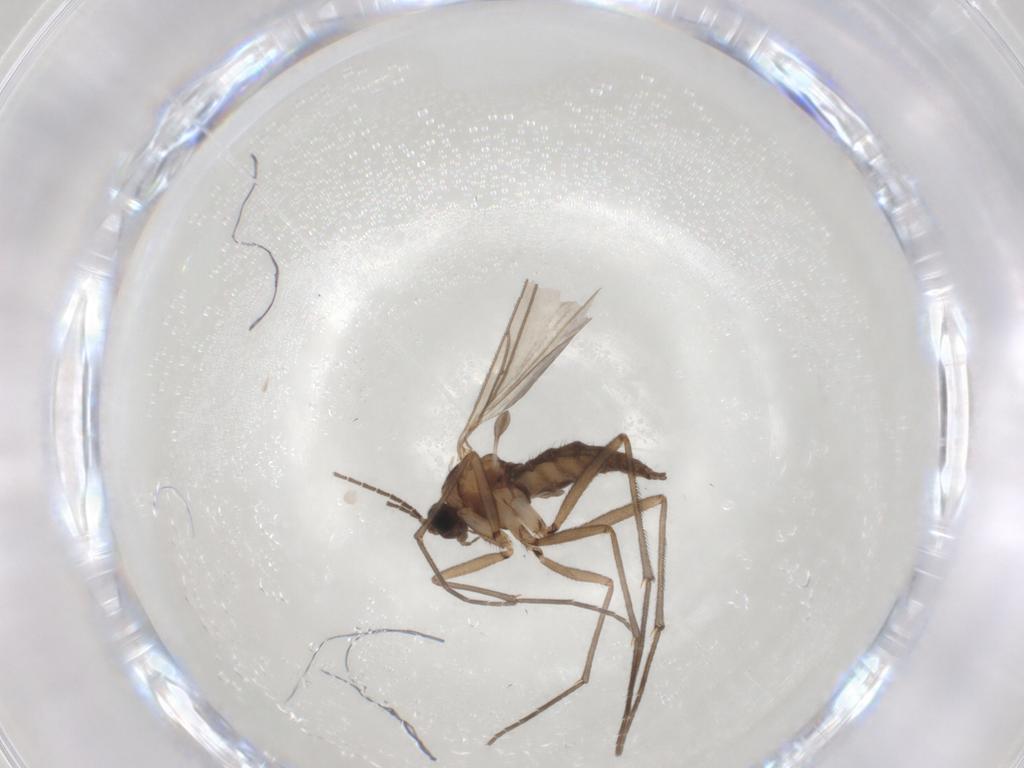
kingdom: Animalia
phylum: Arthropoda
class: Insecta
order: Diptera
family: Sciaridae
